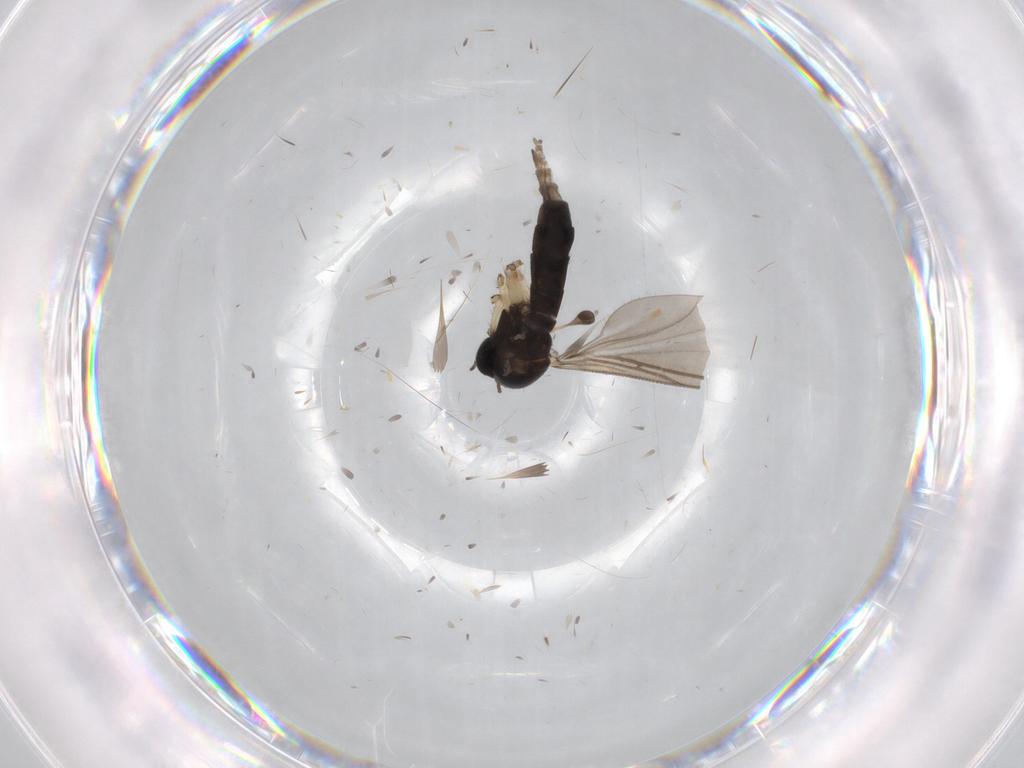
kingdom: Animalia
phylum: Arthropoda
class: Insecta
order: Diptera
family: Sciaridae
